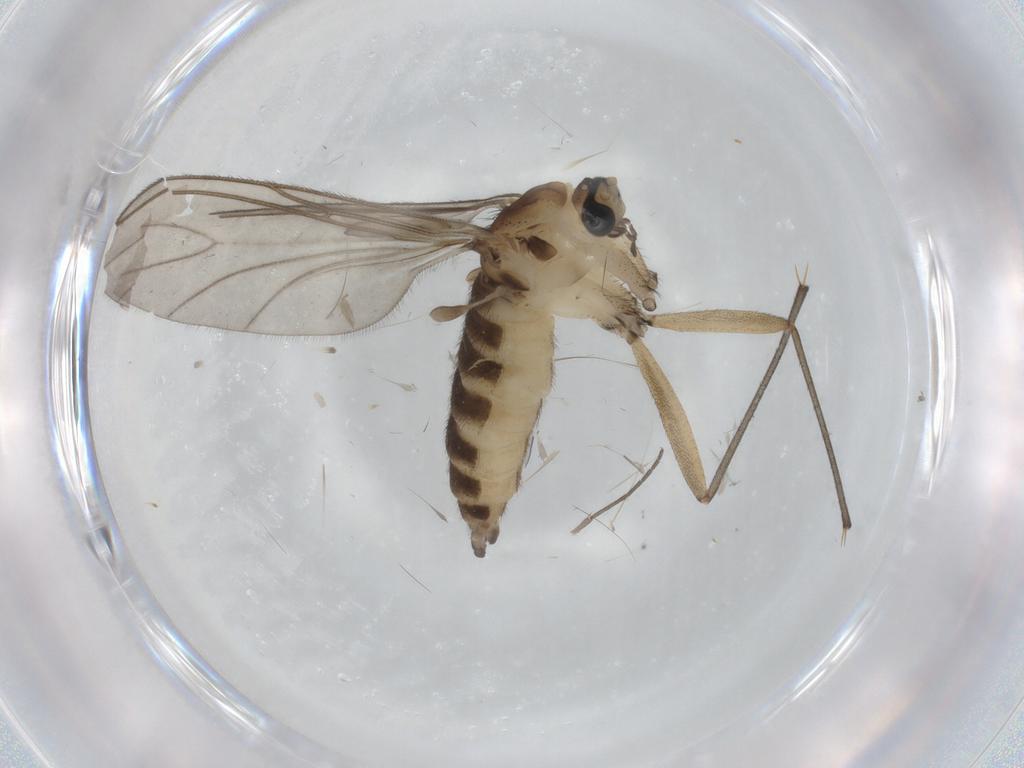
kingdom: Animalia
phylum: Arthropoda
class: Insecta
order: Diptera
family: Sciaridae
